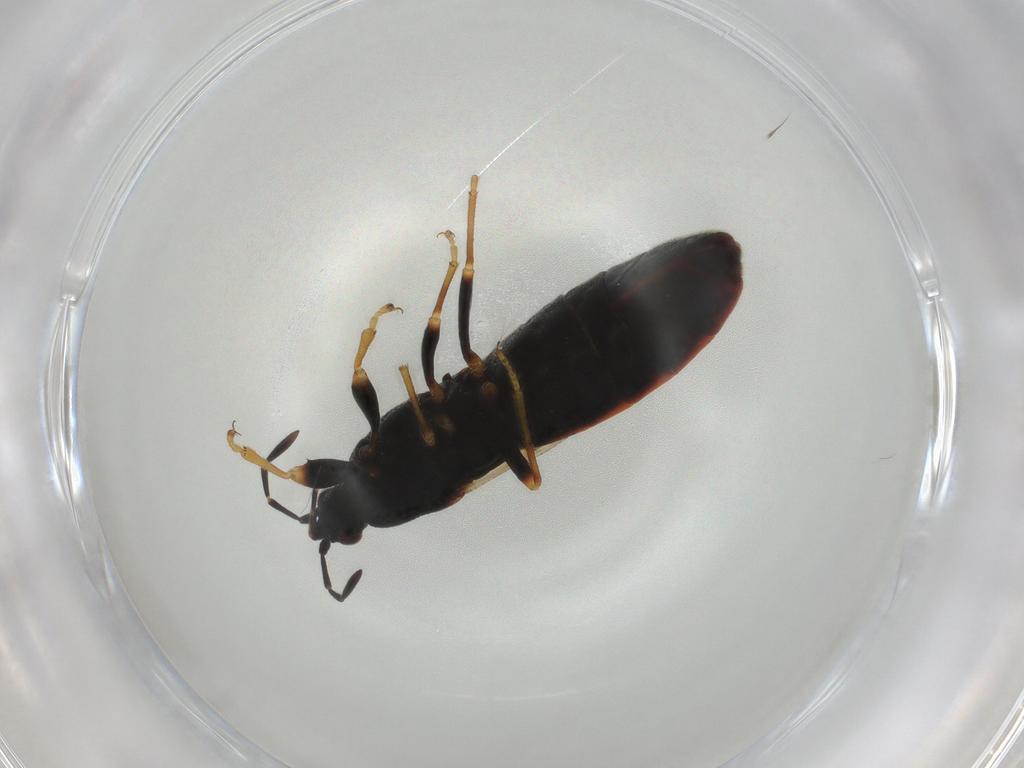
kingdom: Animalia
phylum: Arthropoda
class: Insecta
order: Hemiptera
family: Blissidae
